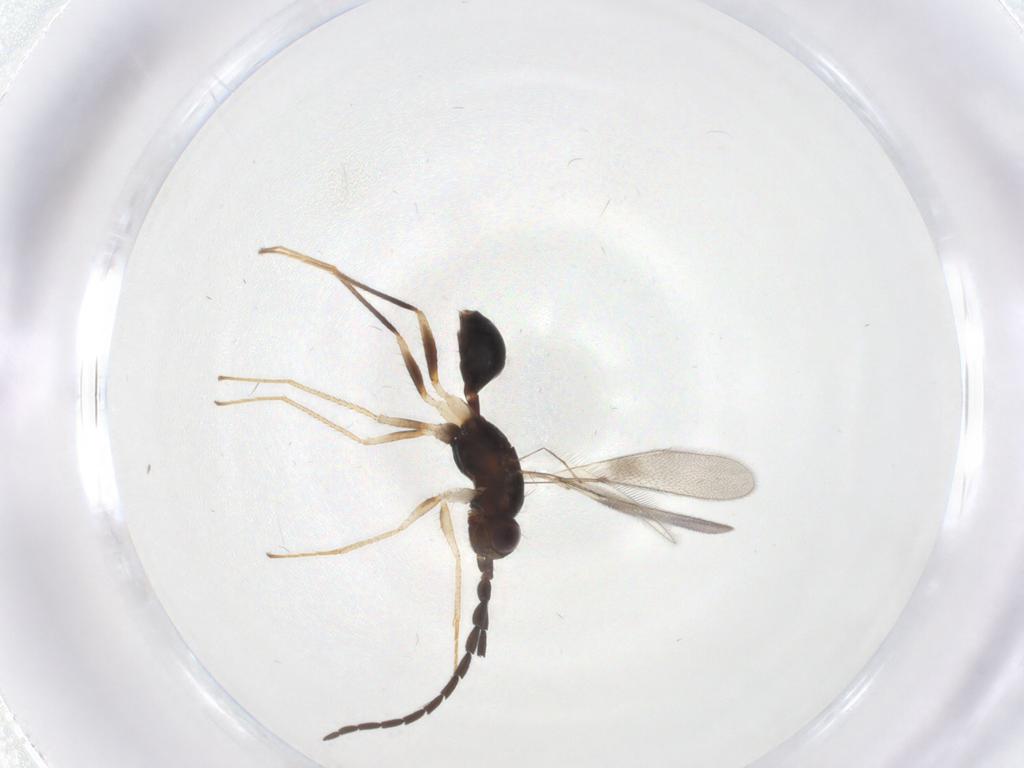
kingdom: Animalia
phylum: Arthropoda
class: Insecta
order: Hymenoptera
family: Mymaridae
